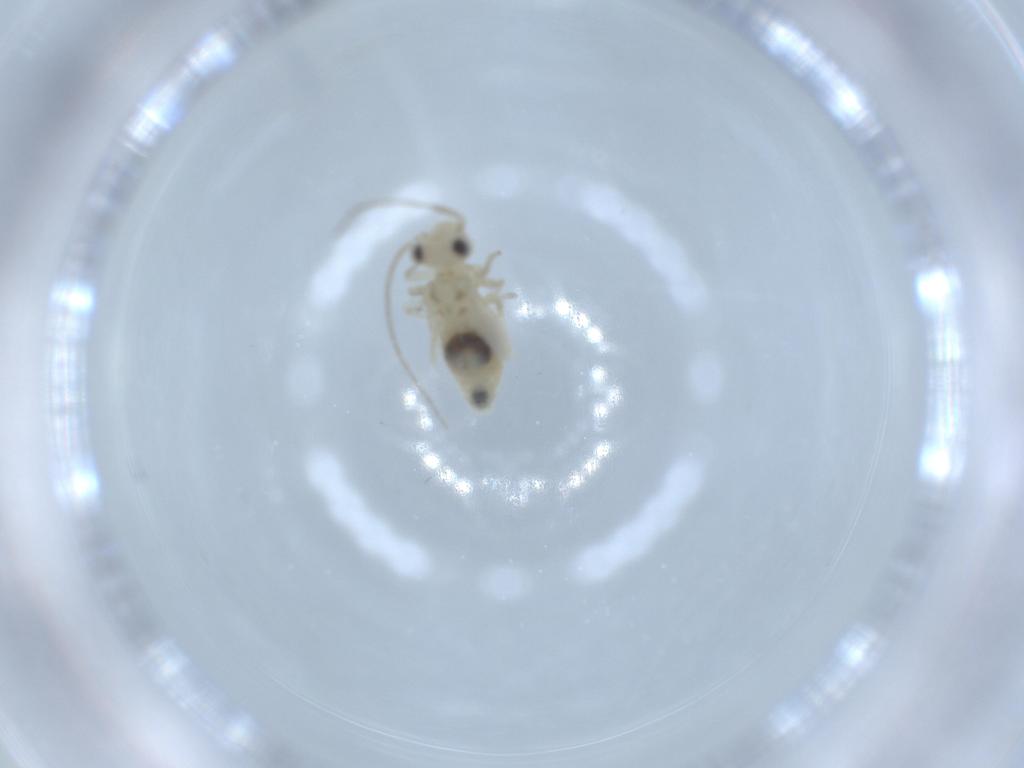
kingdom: Animalia
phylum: Arthropoda
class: Insecta
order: Psocodea
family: Caeciliusidae
